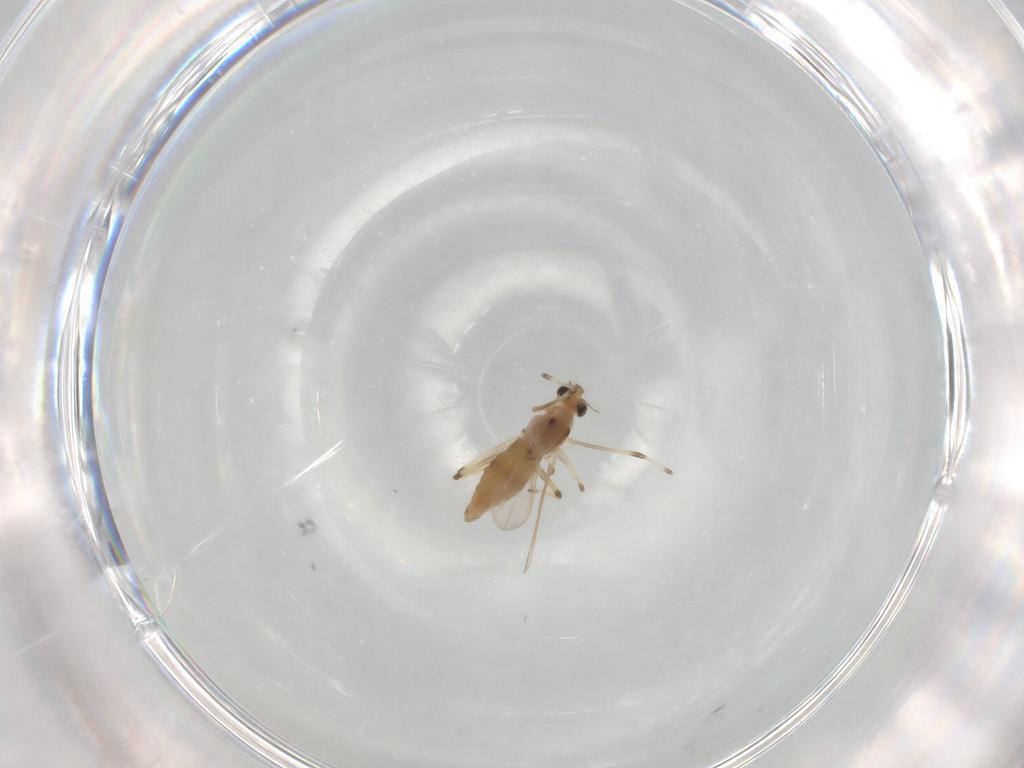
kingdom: Animalia
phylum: Arthropoda
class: Insecta
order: Diptera
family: Chironomidae
